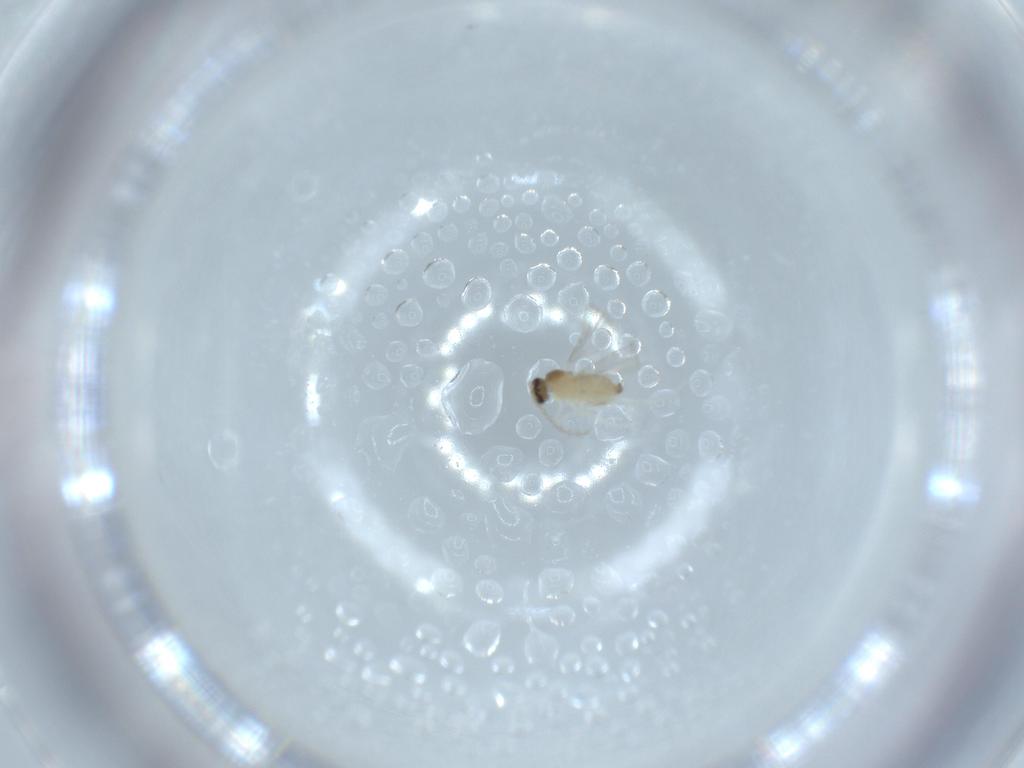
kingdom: Animalia
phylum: Arthropoda
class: Insecta
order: Diptera
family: Cecidomyiidae
